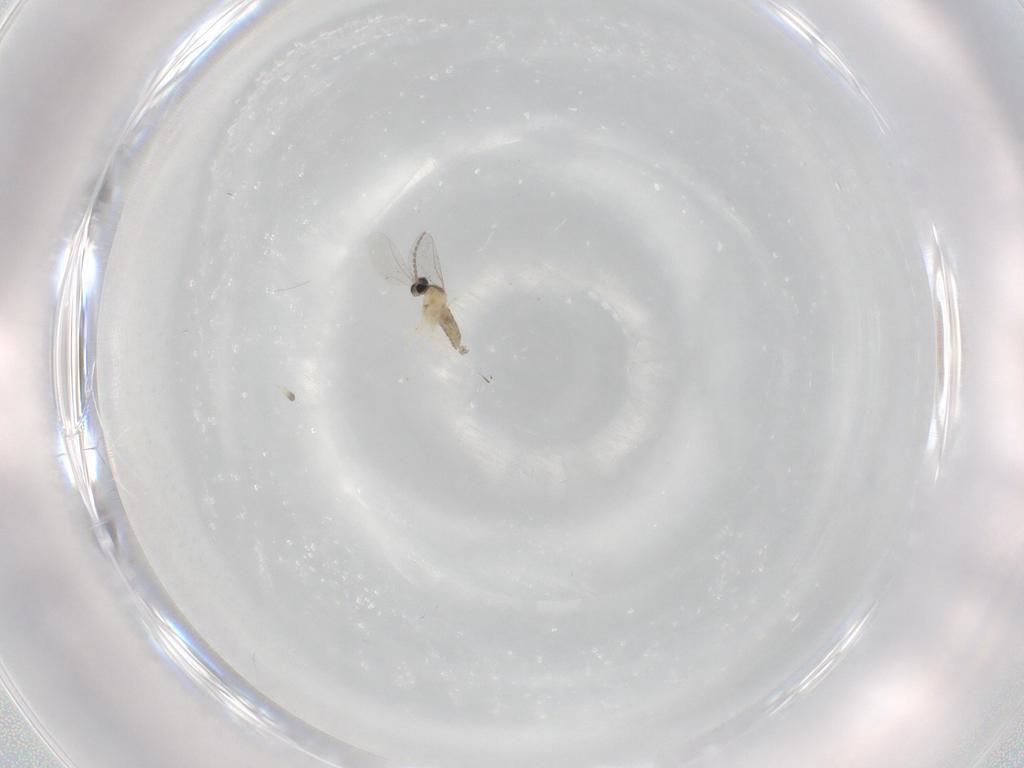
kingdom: Animalia
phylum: Arthropoda
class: Insecta
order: Diptera
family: Cecidomyiidae
